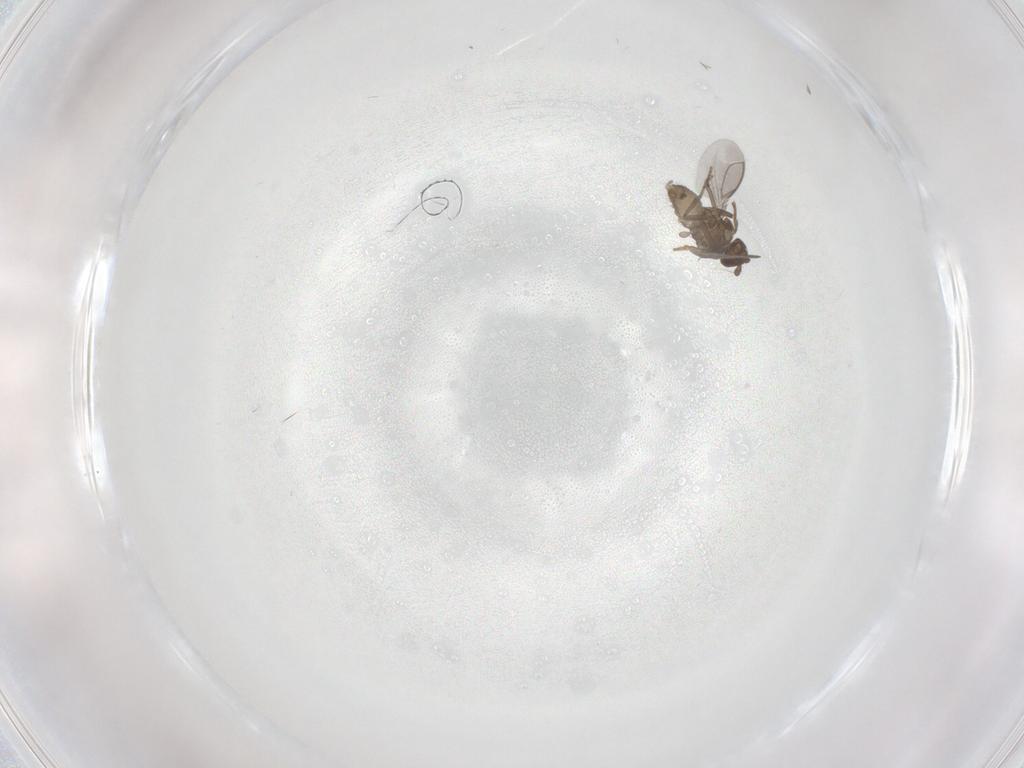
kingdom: Animalia
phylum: Arthropoda
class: Insecta
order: Diptera
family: Sphaeroceridae
